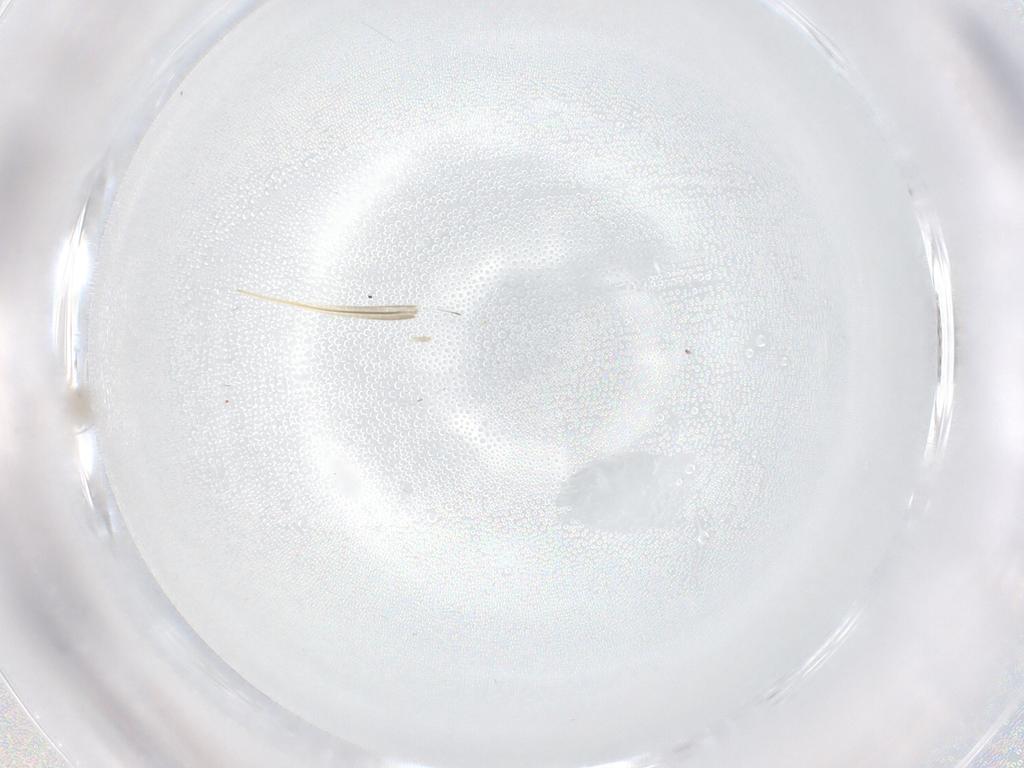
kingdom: Animalia
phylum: Arthropoda
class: Insecta
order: Diptera
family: Cecidomyiidae
